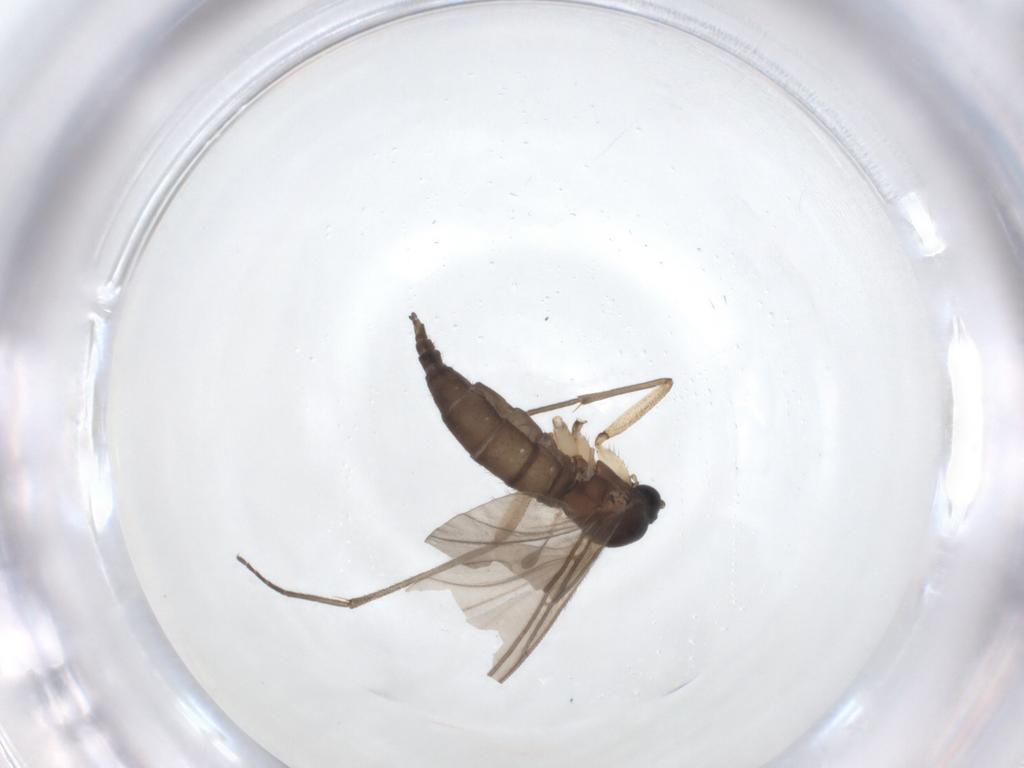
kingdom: Animalia
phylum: Arthropoda
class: Insecta
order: Diptera
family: Sciaridae
